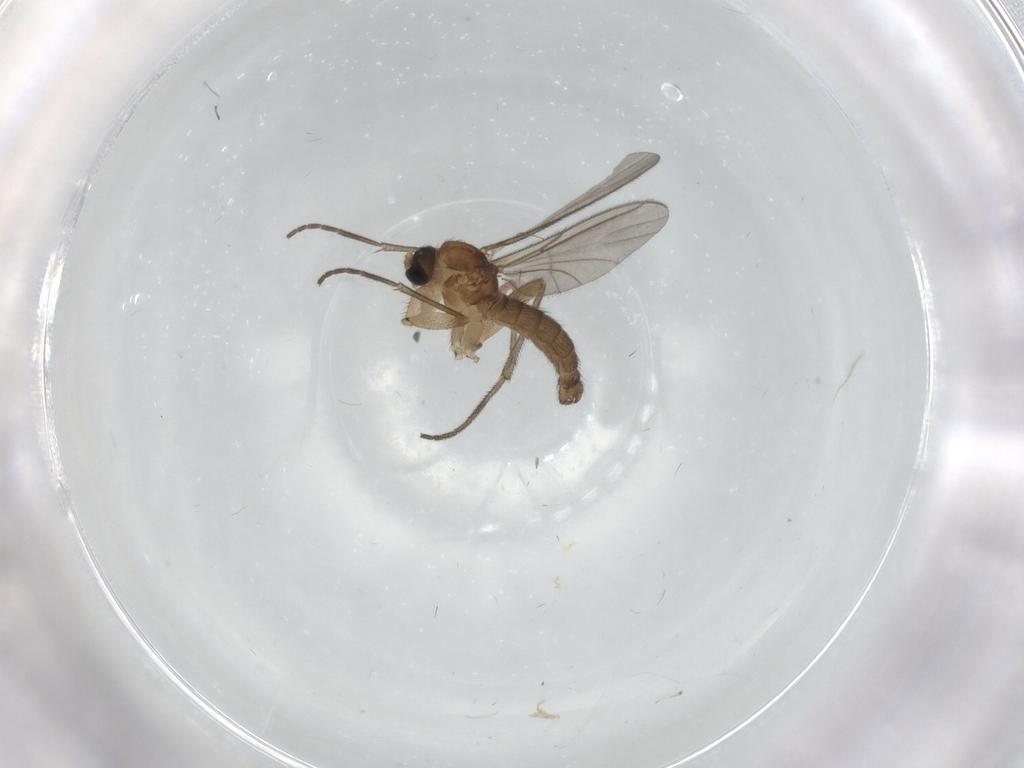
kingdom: Animalia
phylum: Arthropoda
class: Insecta
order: Diptera
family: Sciaridae
